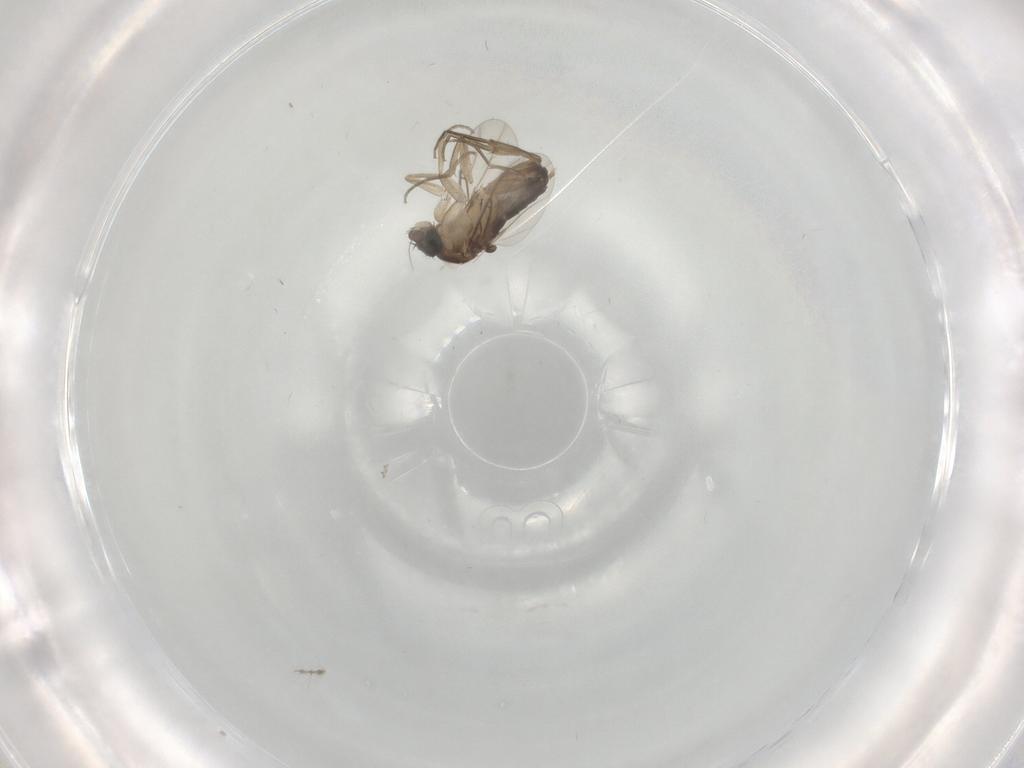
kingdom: Animalia
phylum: Arthropoda
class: Insecta
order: Diptera
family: Phoridae
